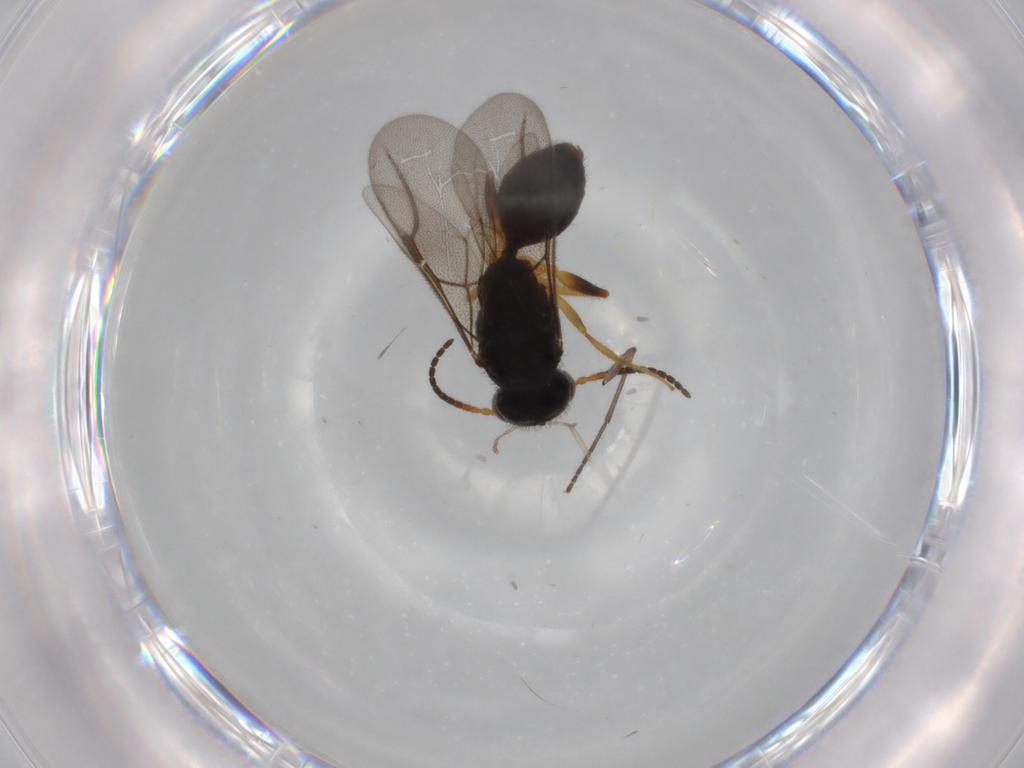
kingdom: Animalia
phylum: Arthropoda
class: Insecta
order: Hymenoptera
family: Bethylidae
